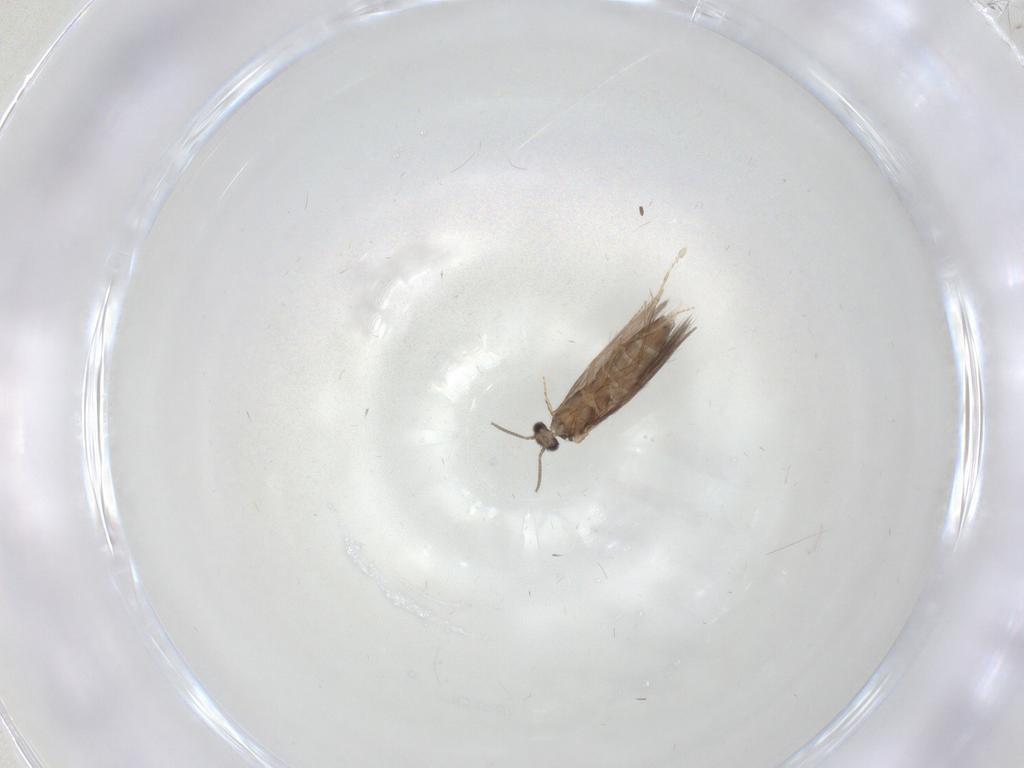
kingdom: Animalia
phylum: Arthropoda
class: Insecta
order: Trichoptera
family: Hydroptilidae
